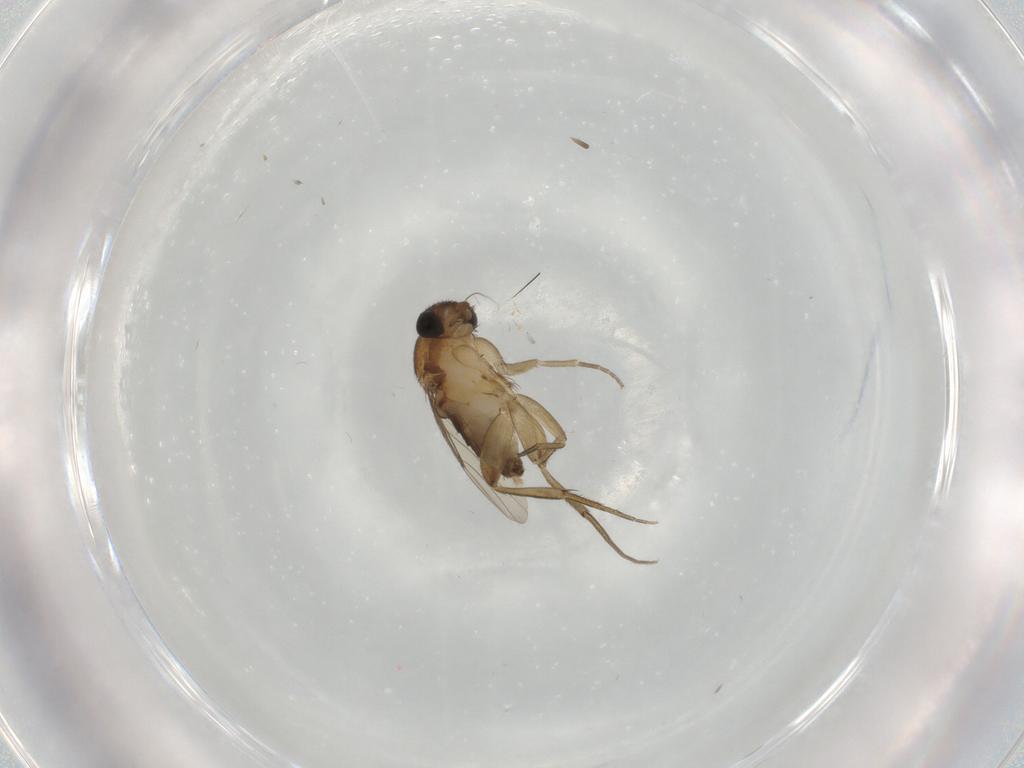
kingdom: Animalia
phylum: Arthropoda
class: Insecta
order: Diptera
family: Phoridae
